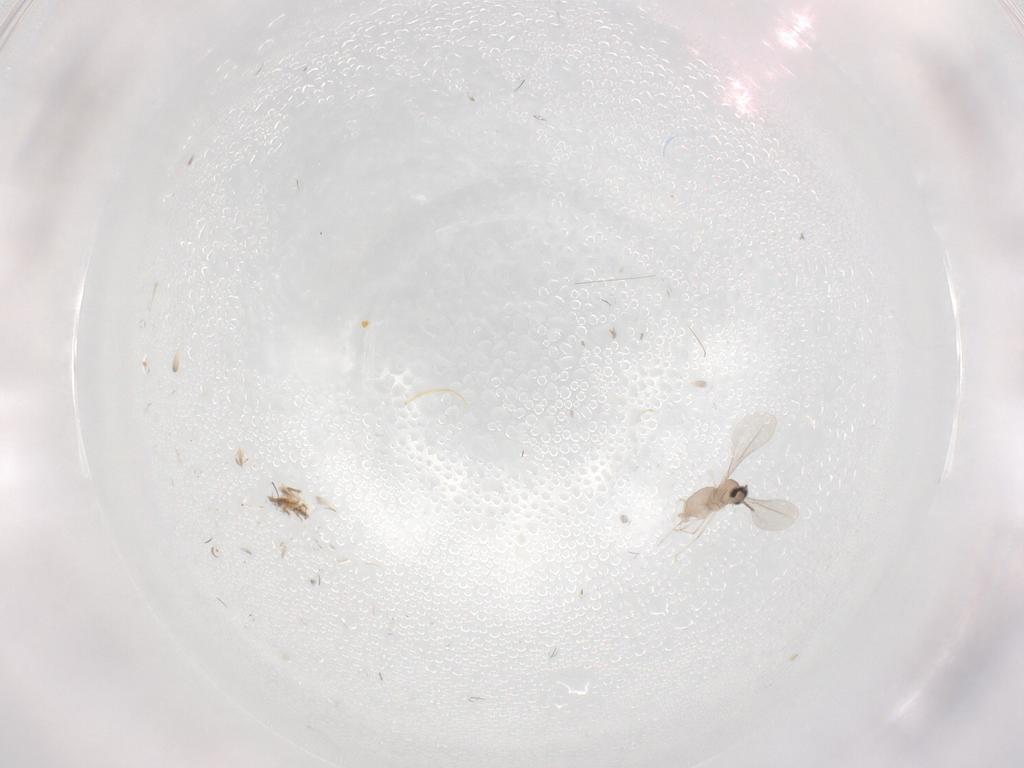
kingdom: Animalia
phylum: Arthropoda
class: Insecta
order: Diptera
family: Cecidomyiidae
